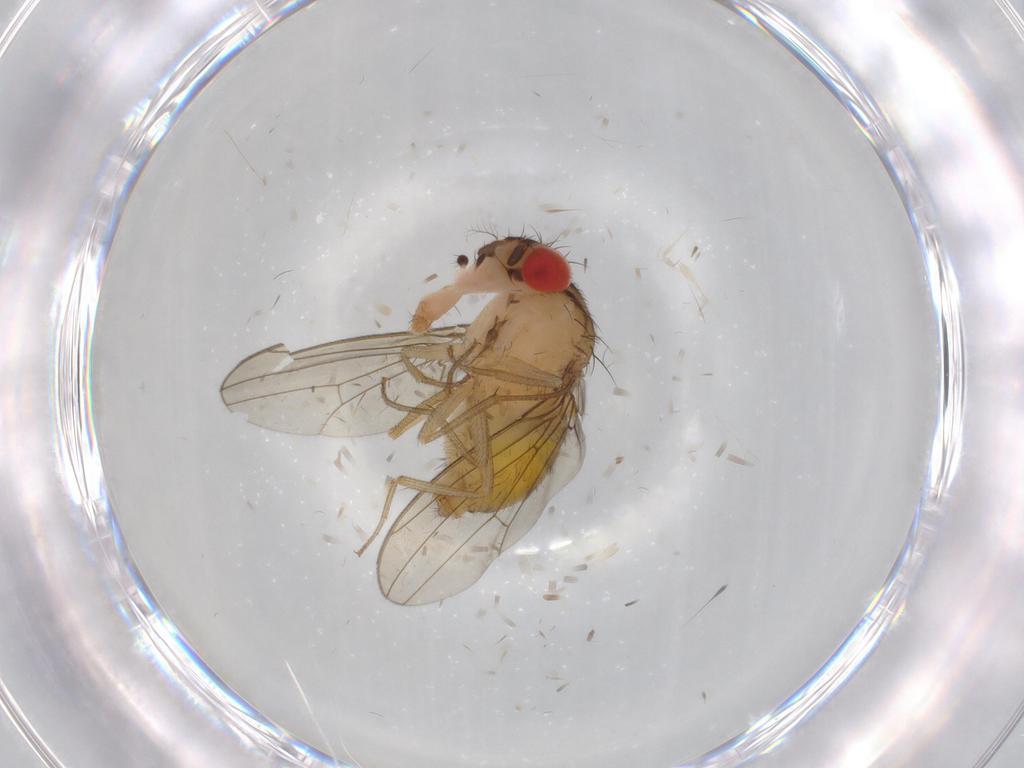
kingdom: Animalia
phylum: Arthropoda
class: Insecta
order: Diptera
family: Drosophilidae
